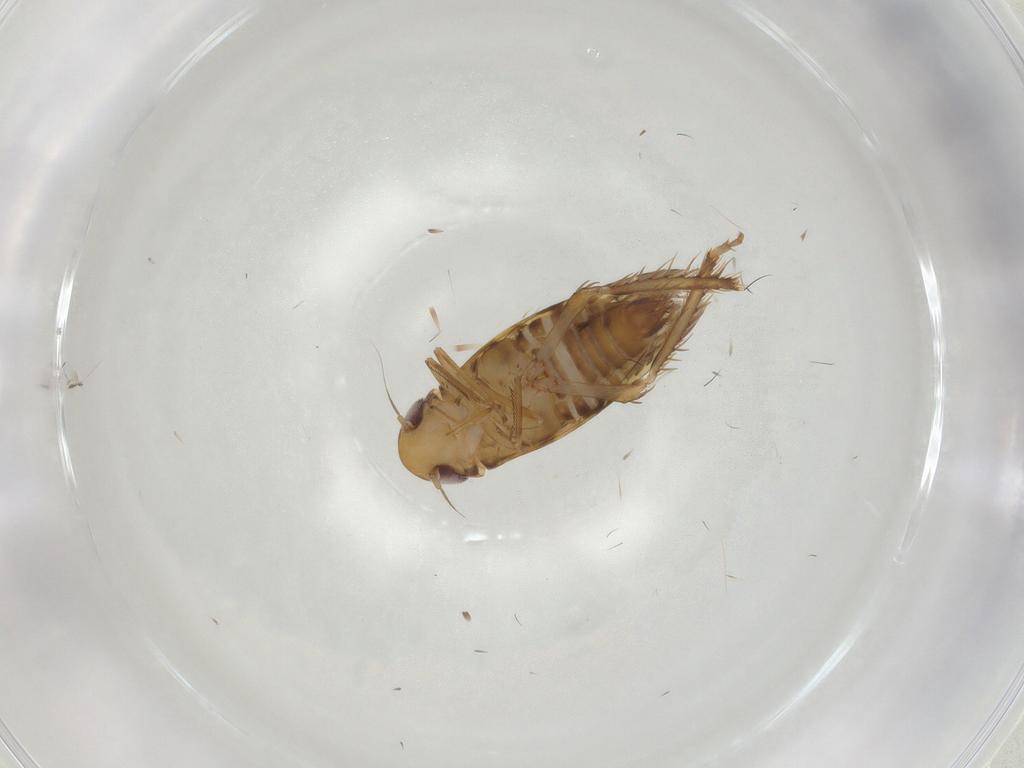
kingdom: Animalia
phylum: Arthropoda
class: Insecta
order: Hemiptera
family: Cicadellidae
